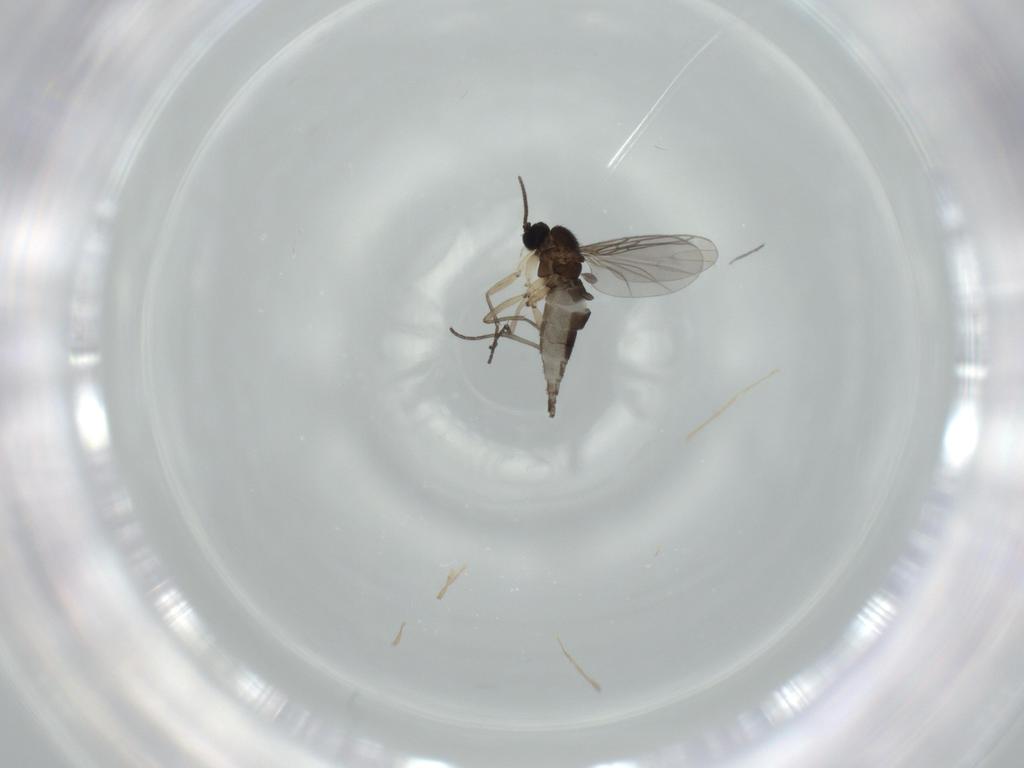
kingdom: Animalia
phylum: Arthropoda
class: Insecta
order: Diptera
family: Sciaridae
